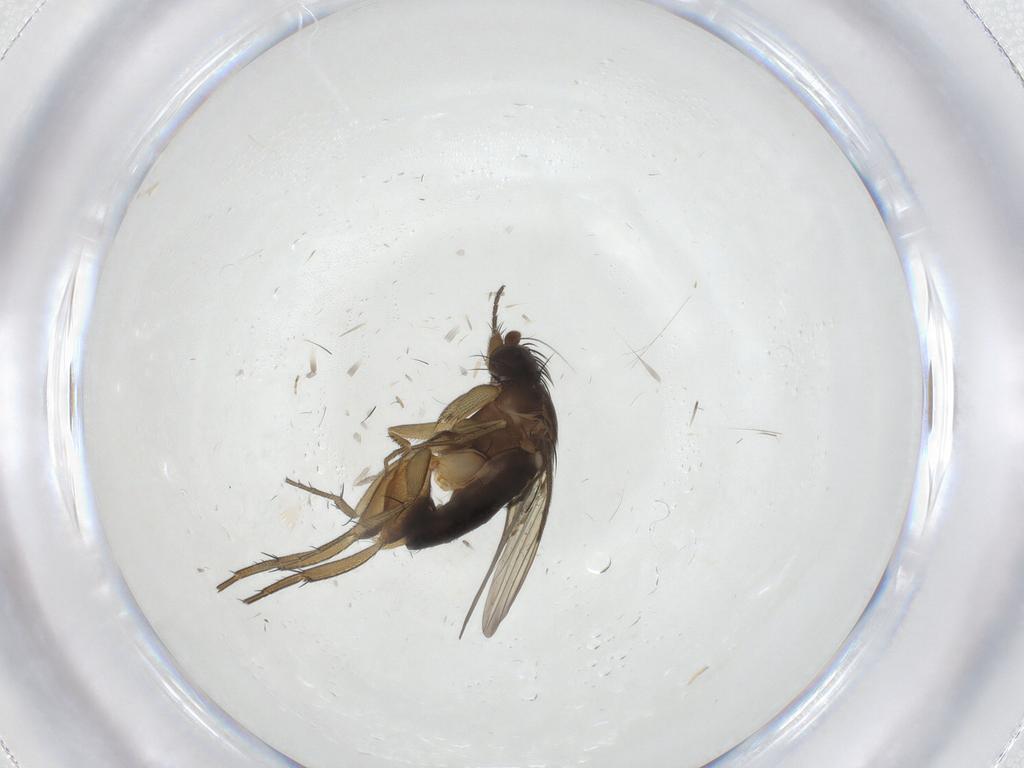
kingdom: Animalia
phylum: Arthropoda
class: Insecta
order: Diptera
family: Phoridae
